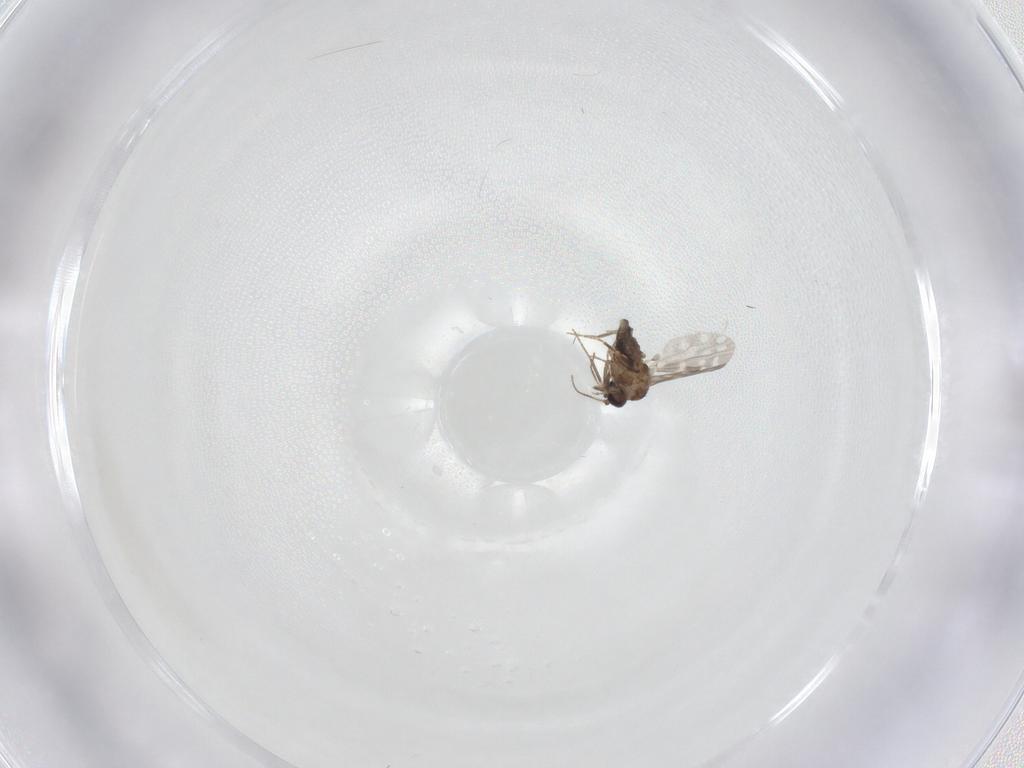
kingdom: Animalia
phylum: Arthropoda
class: Insecta
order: Diptera
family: Ceratopogonidae
